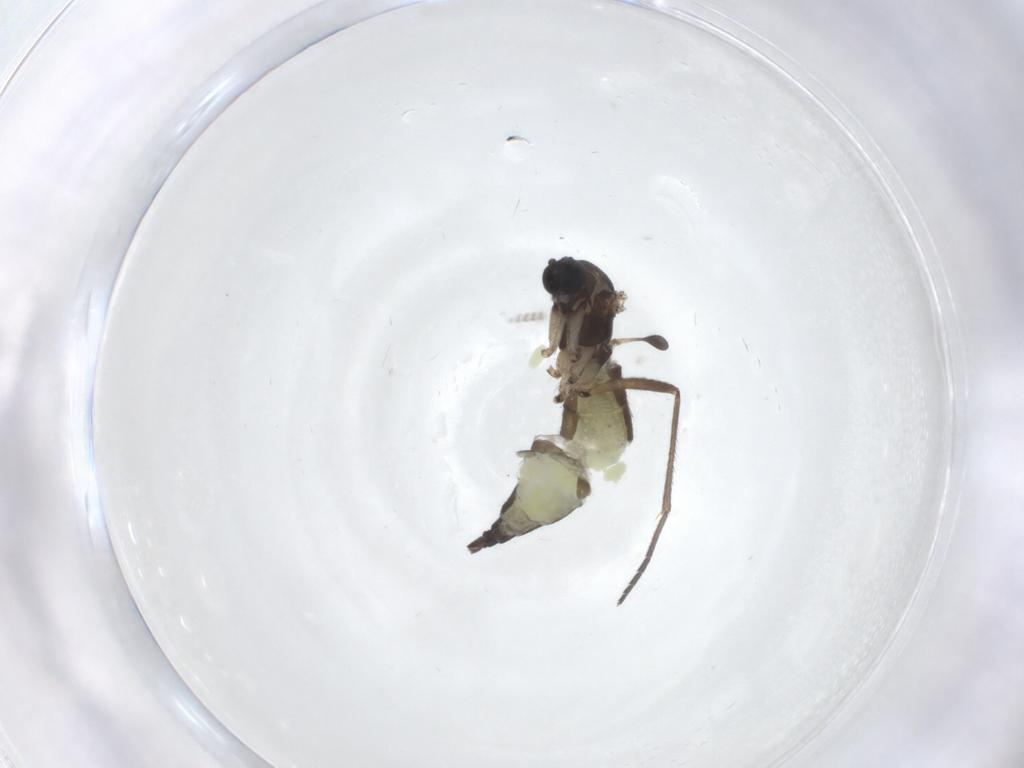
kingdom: Animalia
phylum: Arthropoda
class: Insecta
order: Diptera
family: Sciaridae
